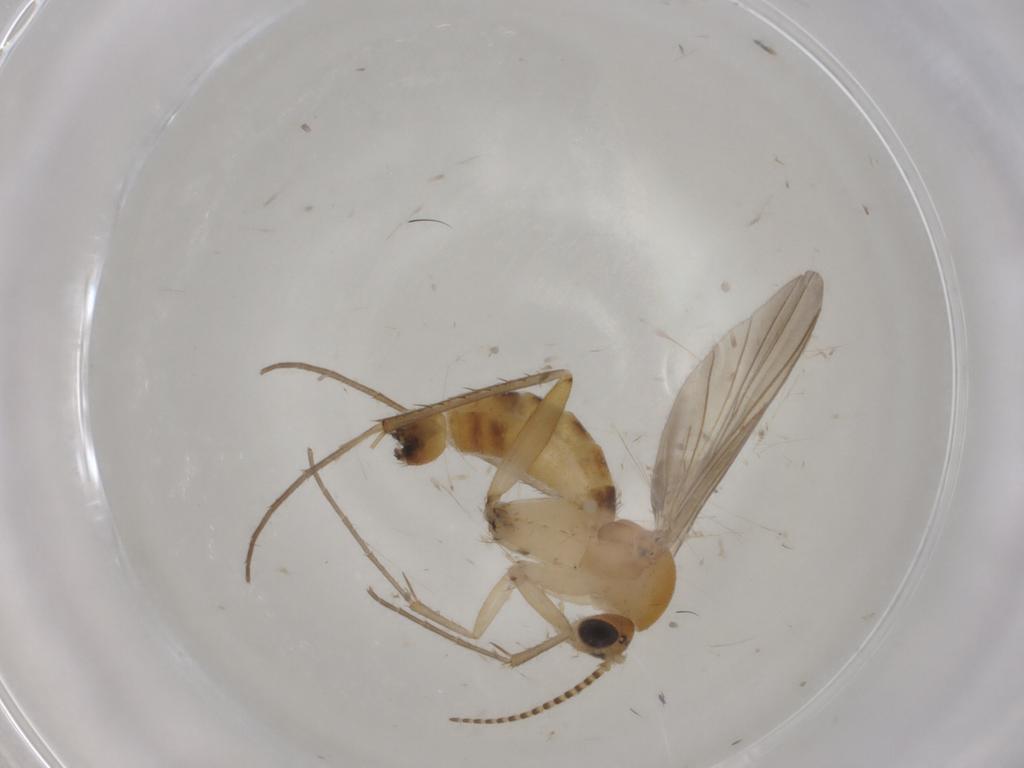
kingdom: Animalia
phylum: Arthropoda
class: Insecta
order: Diptera
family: Mycetophilidae
